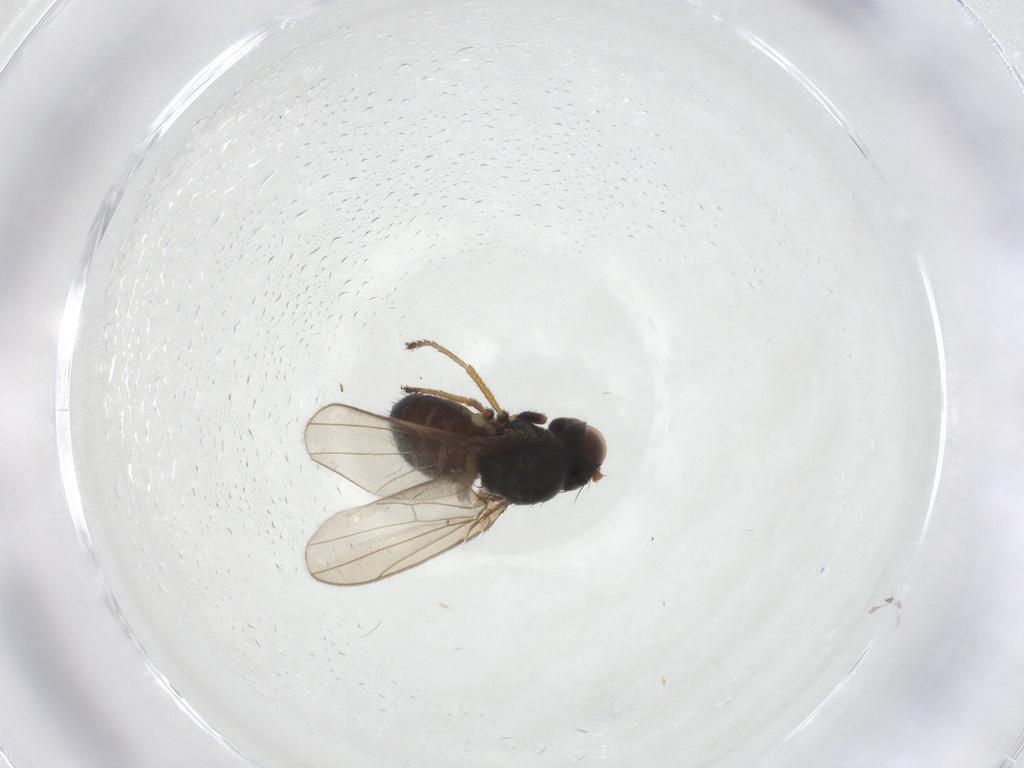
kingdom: Animalia
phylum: Arthropoda
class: Insecta
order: Diptera
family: Ephydridae
